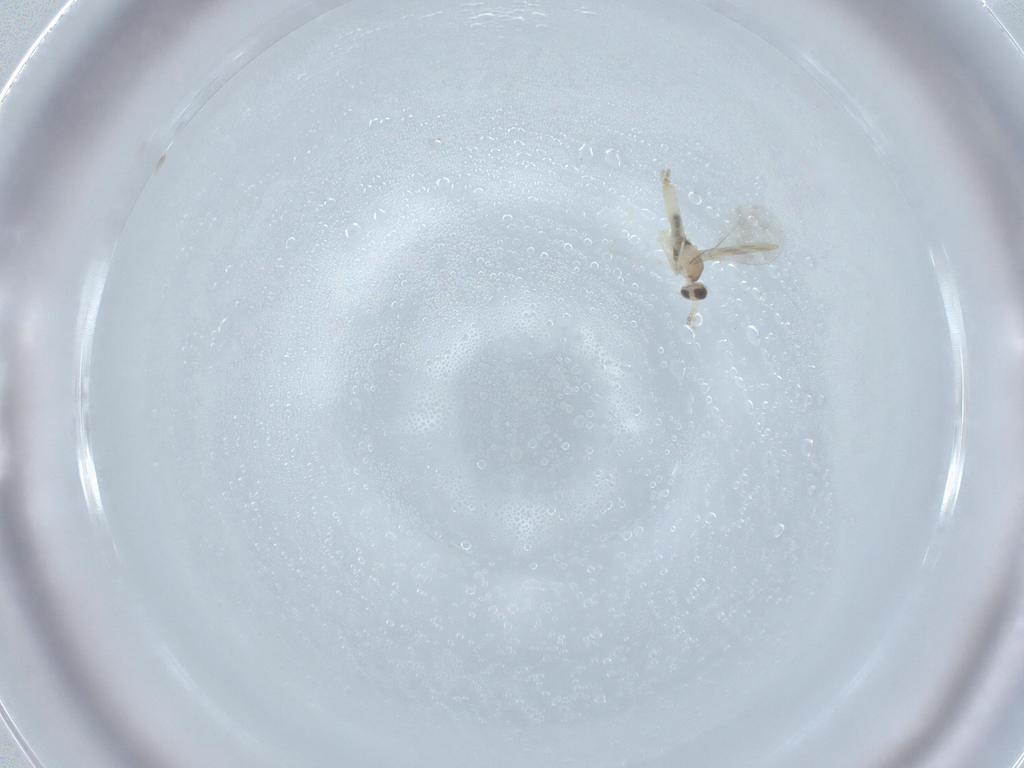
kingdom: Animalia
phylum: Arthropoda
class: Insecta
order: Diptera
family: Cecidomyiidae
